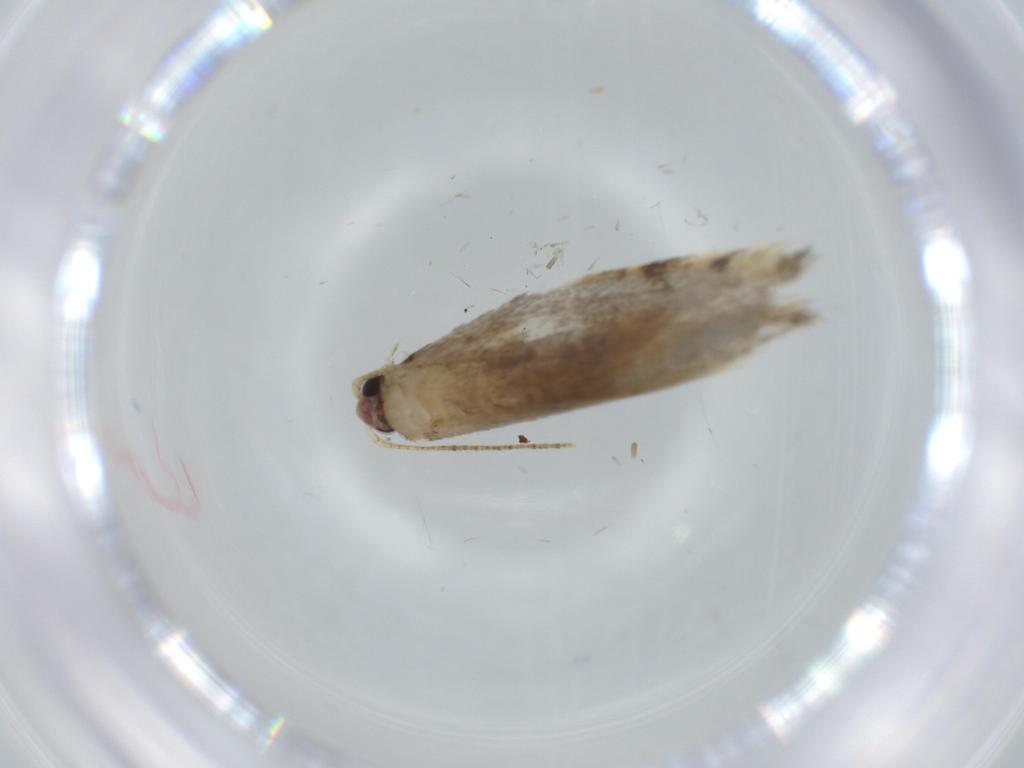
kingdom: Animalia
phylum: Arthropoda
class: Insecta
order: Lepidoptera
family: Tineidae
